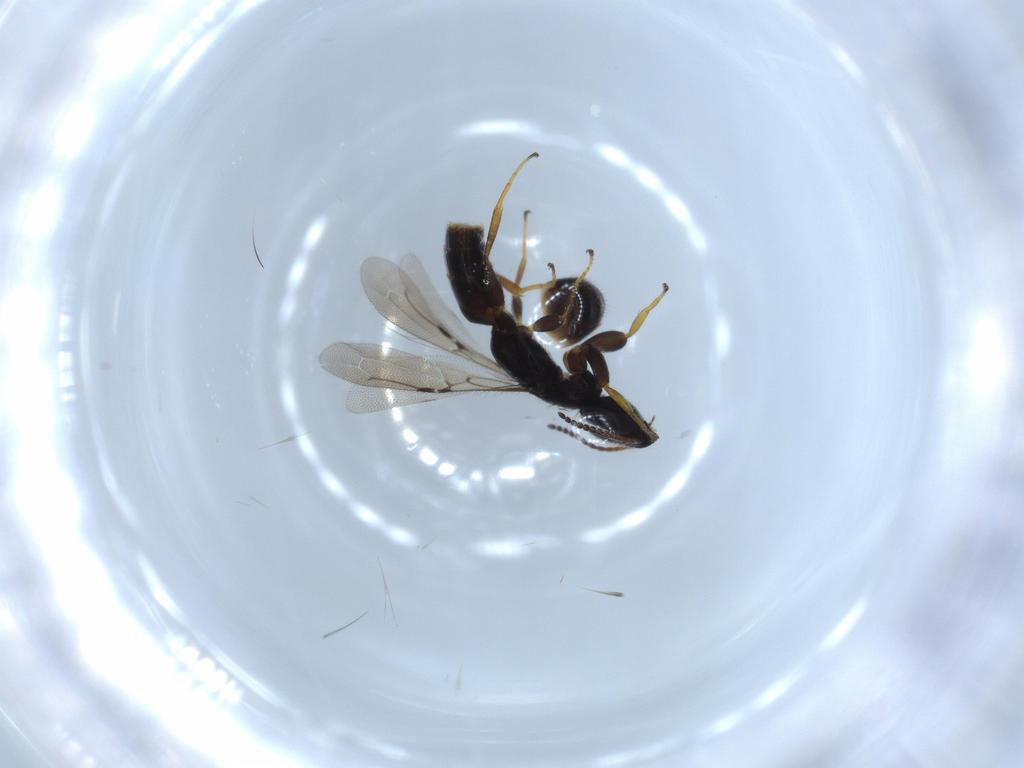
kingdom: Animalia
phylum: Arthropoda
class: Insecta
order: Hymenoptera
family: Bethylidae
